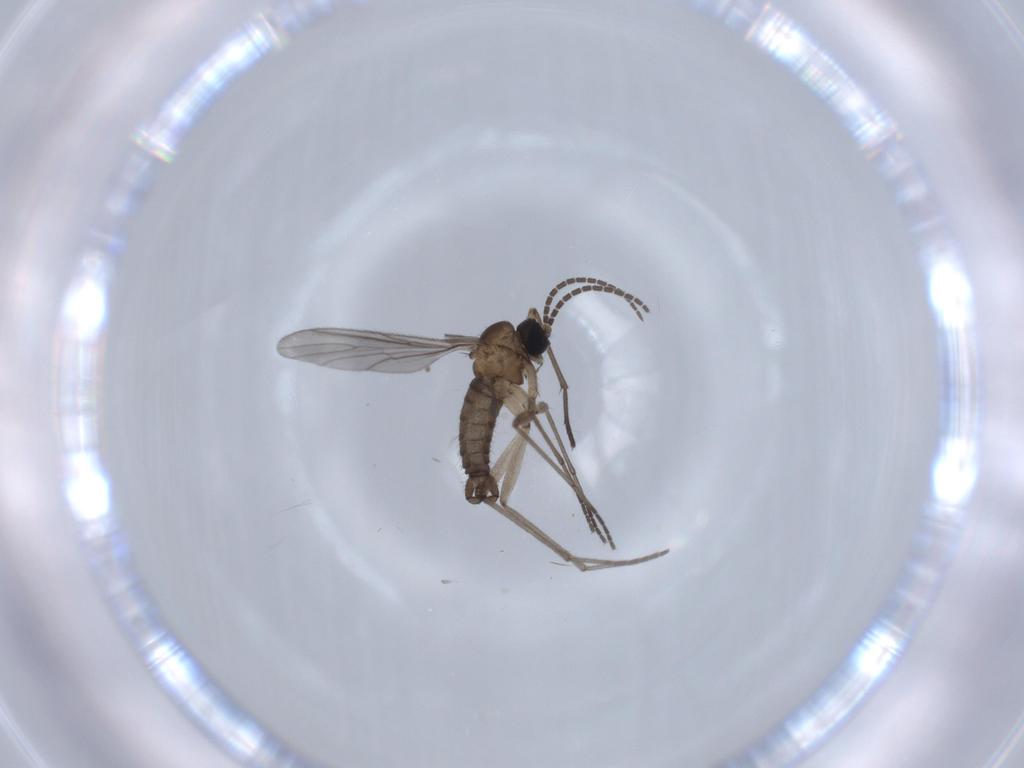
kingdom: Animalia
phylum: Arthropoda
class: Insecta
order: Diptera
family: Sciaridae
